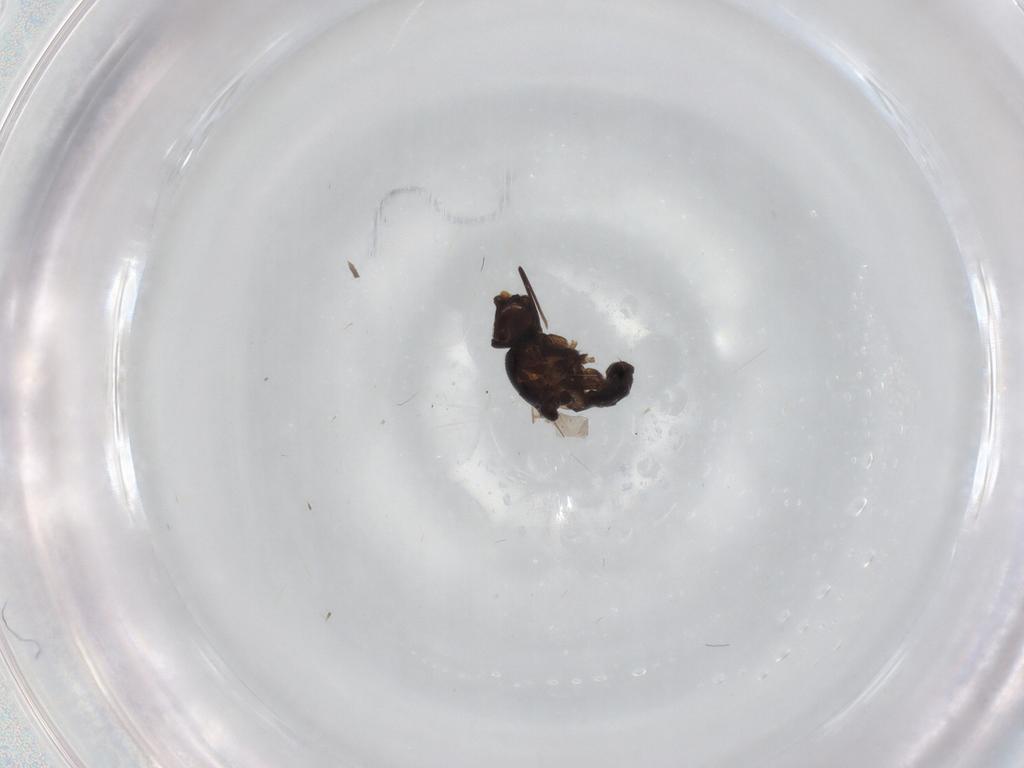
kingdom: Animalia
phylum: Arthropoda
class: Insecta
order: Diptera
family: Chloropidae
